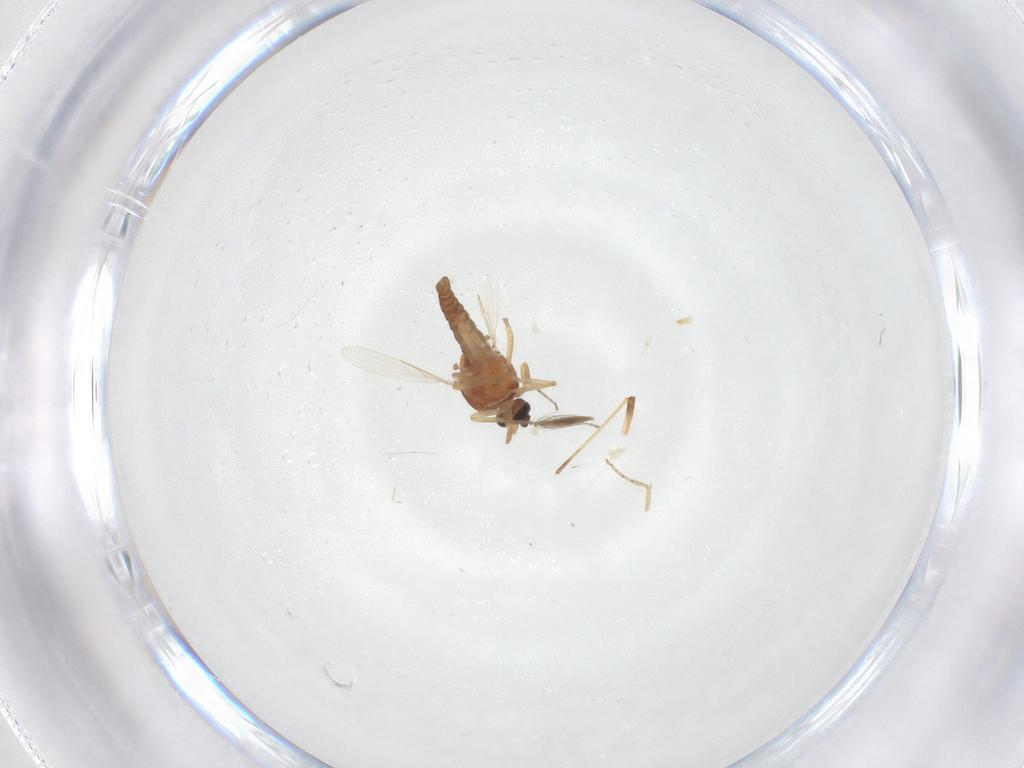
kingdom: Animalia
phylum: Arthropoda
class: Insecta
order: Diptera
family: Ceratopogonidae
